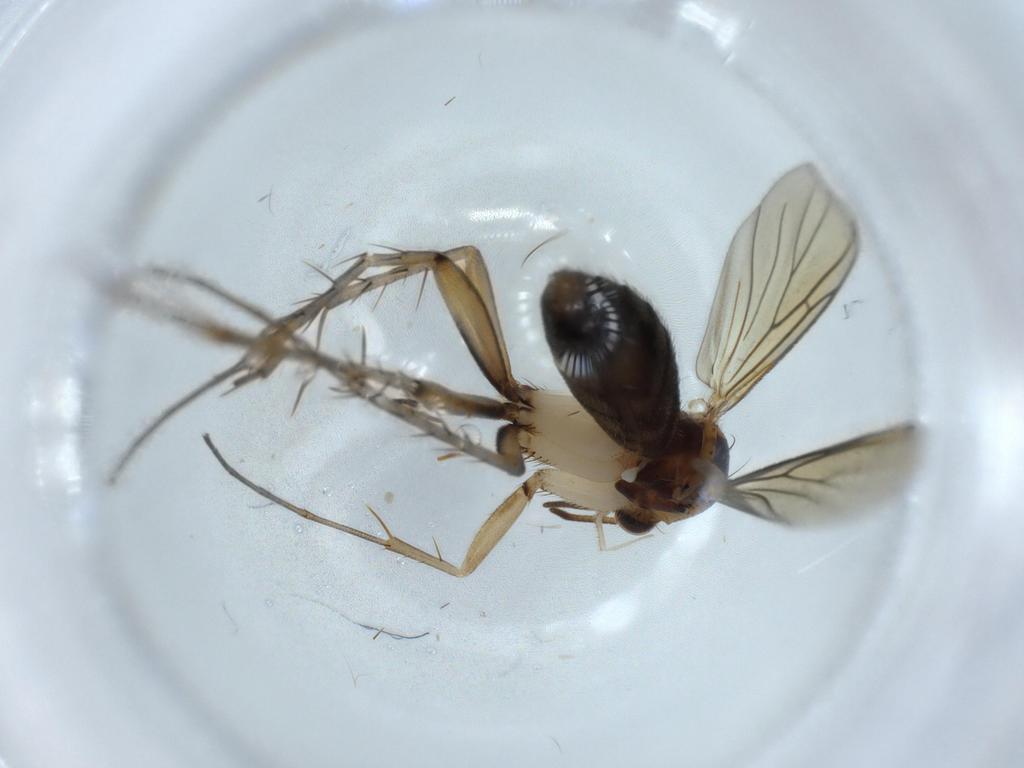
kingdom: Animalia
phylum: Arthropoda
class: Insecta
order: Diptera
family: Mycetophilidae
